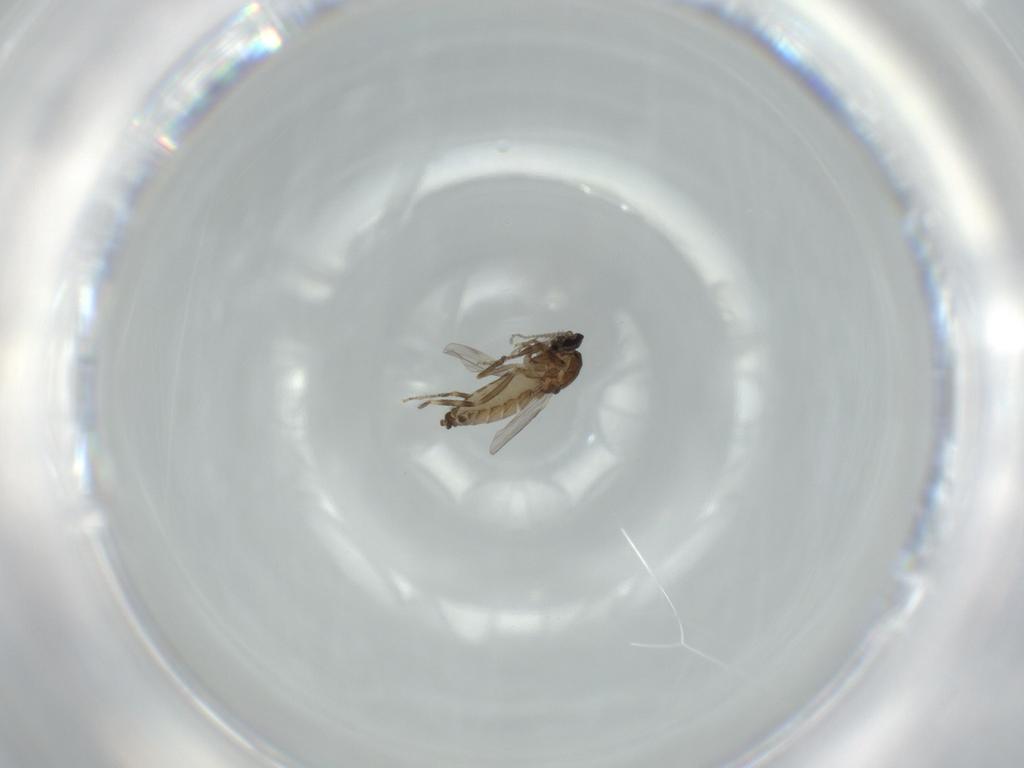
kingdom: Animalia
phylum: Arthropoda
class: Insecta
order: Diptera
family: Ceratopogonidae
